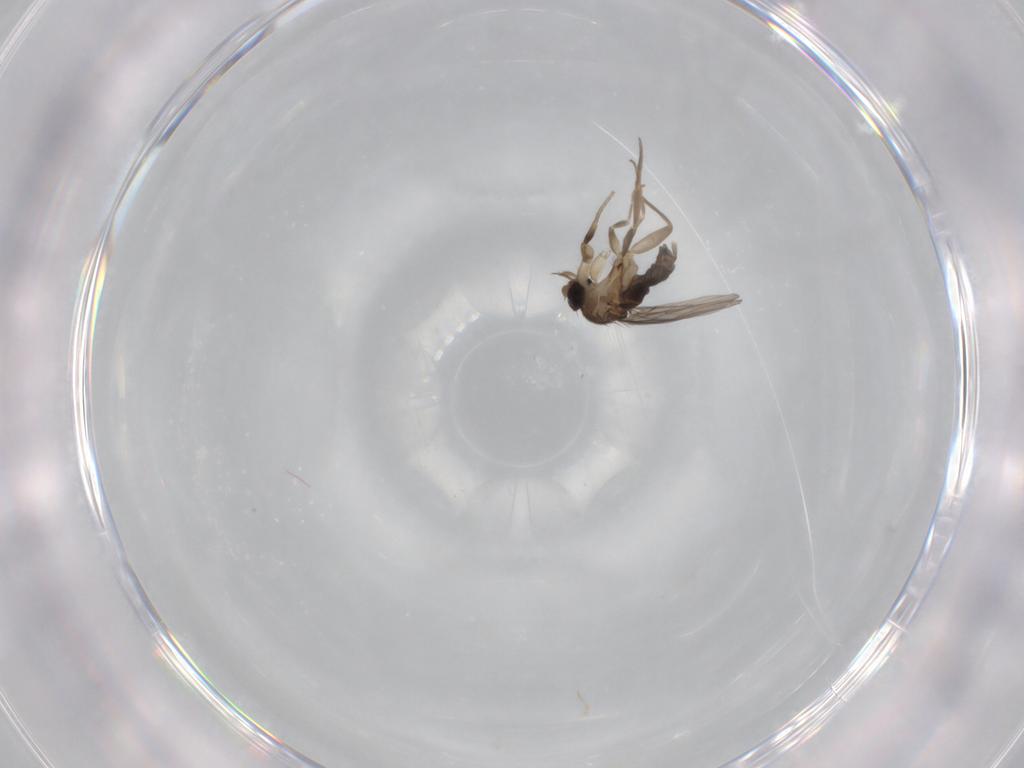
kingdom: Animalia
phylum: Arthropoda
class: Insecta
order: Diptera
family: Phoridae
